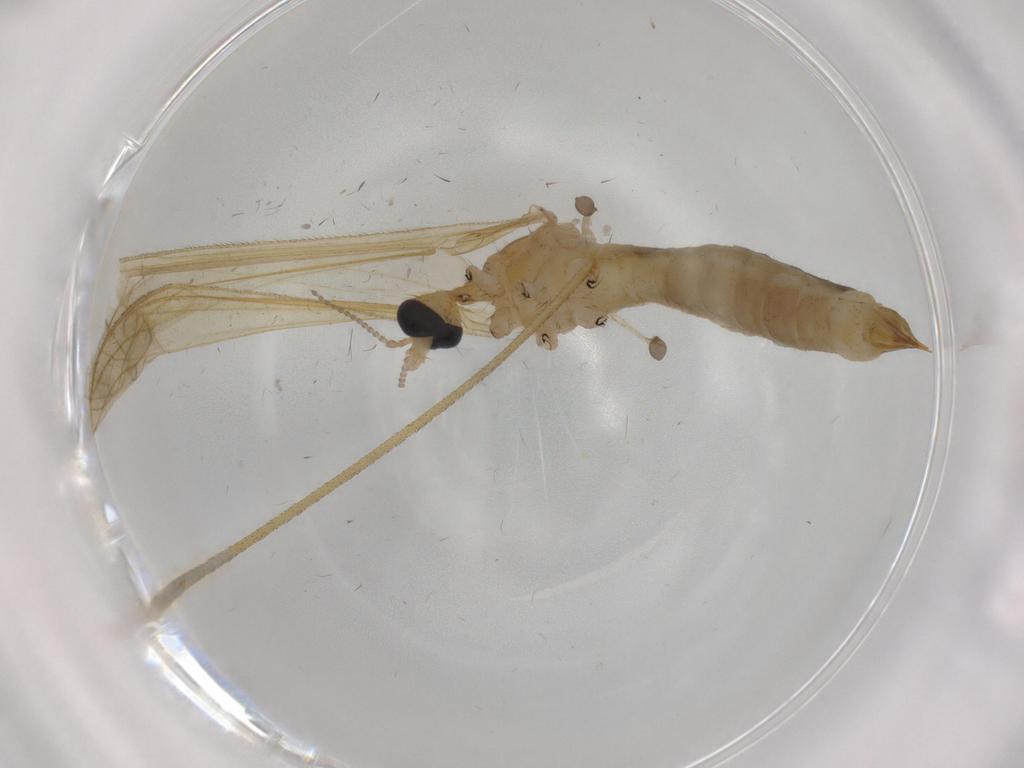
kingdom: Animalia
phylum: Arthropoda
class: Insecta
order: Diptera
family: Limoniidae
